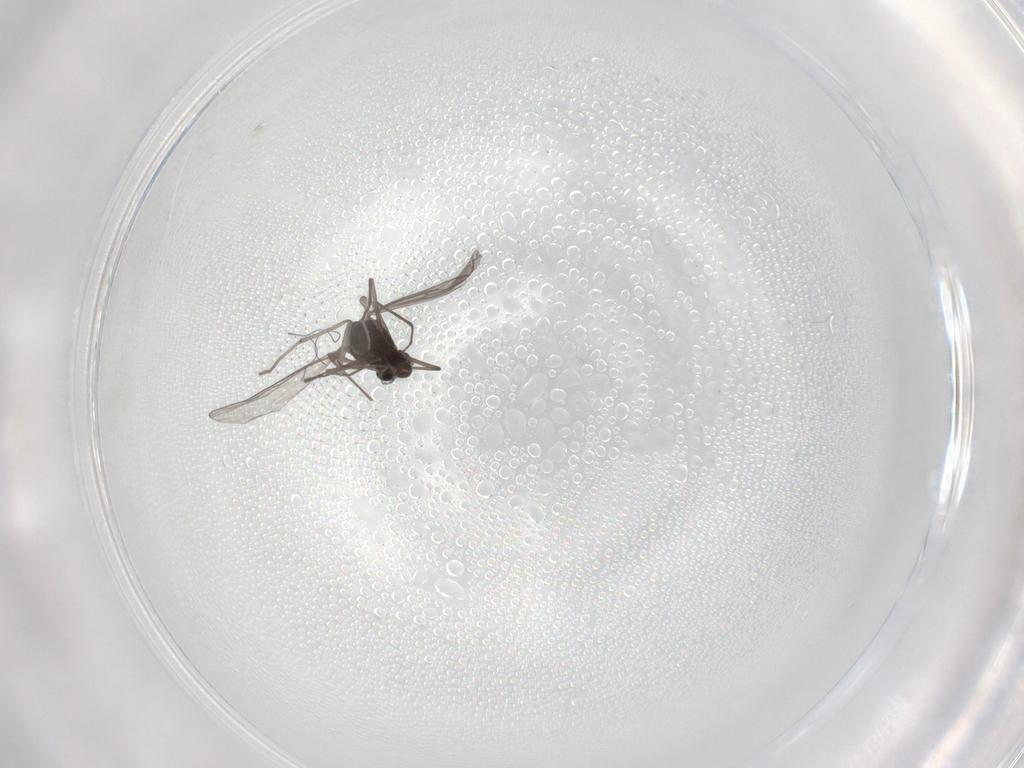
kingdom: Animalia
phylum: Arthropoda
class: Insecta
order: Diptera
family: Chironomidae
